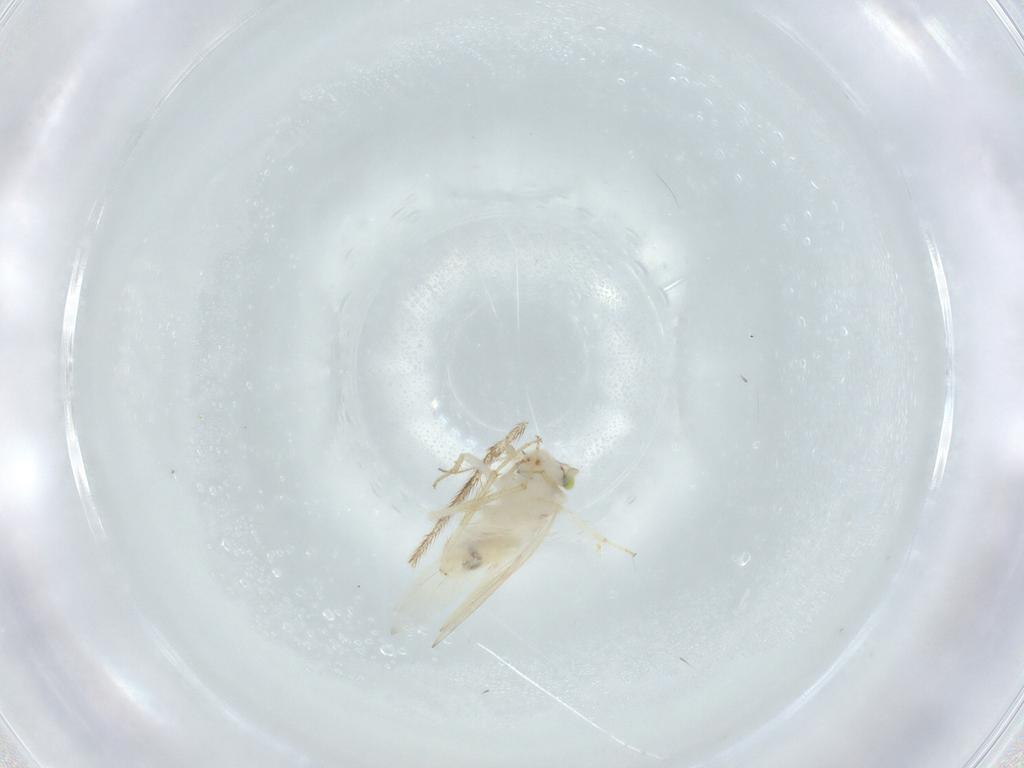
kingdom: Animalia
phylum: Arthropoda
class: Insecta
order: Psocodea
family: Lepidopsocidae
